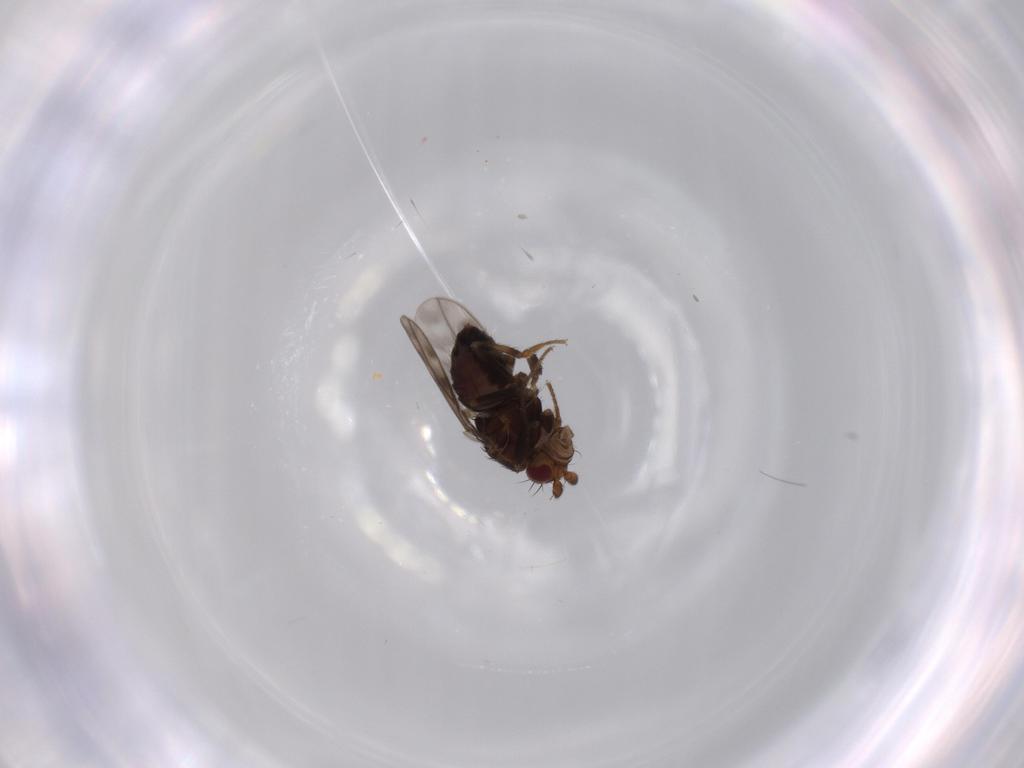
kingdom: Animalia
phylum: Arthropoda
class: Insecta
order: Diptera
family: Sphaeroceridae
